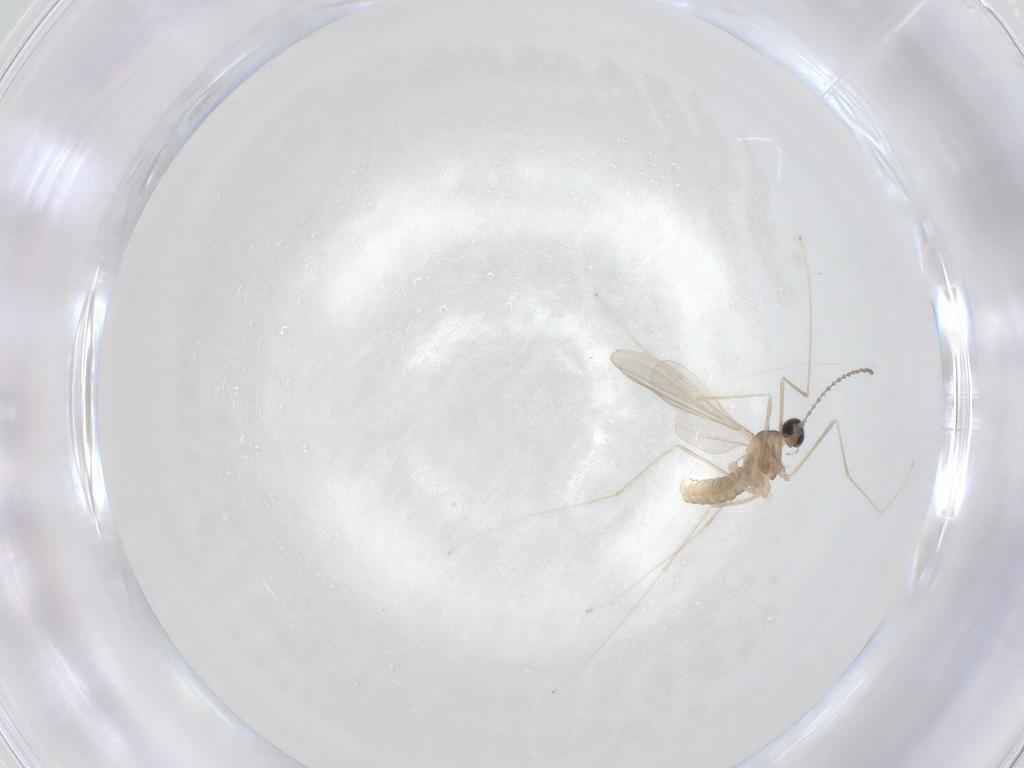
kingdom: Animalia
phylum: Arthropoda
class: Insecta
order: Diptera
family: Cecidomyiidae
